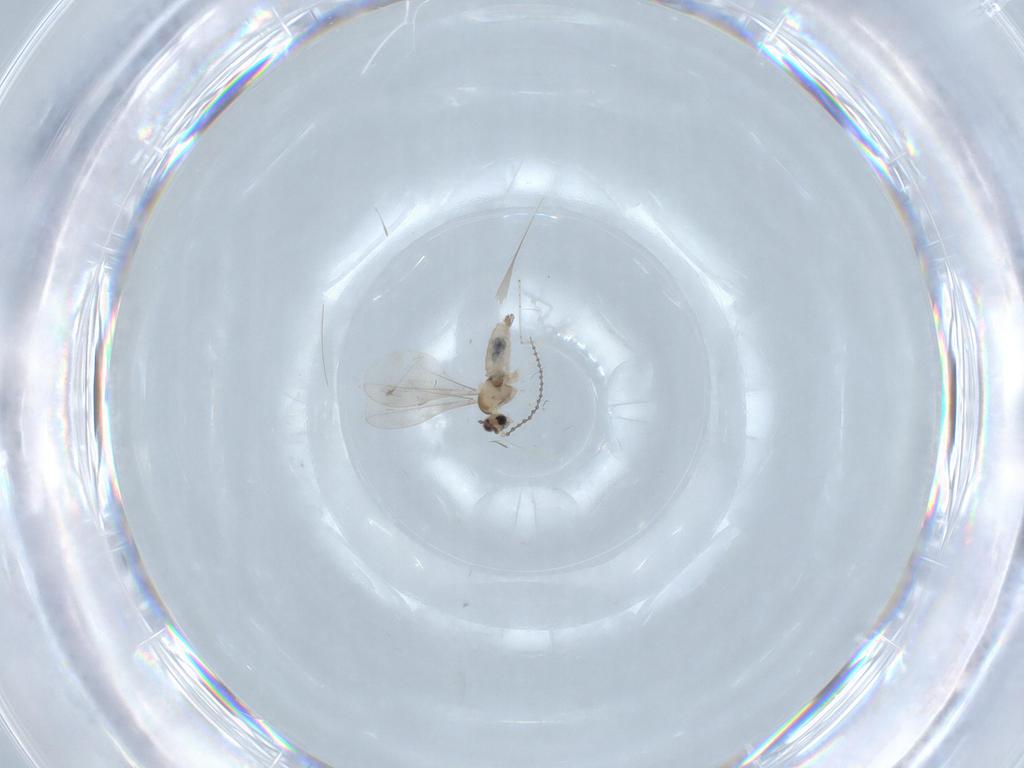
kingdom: Animalia
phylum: Arthropoda
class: Insecta
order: Diptera
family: Cecidomyiidae
